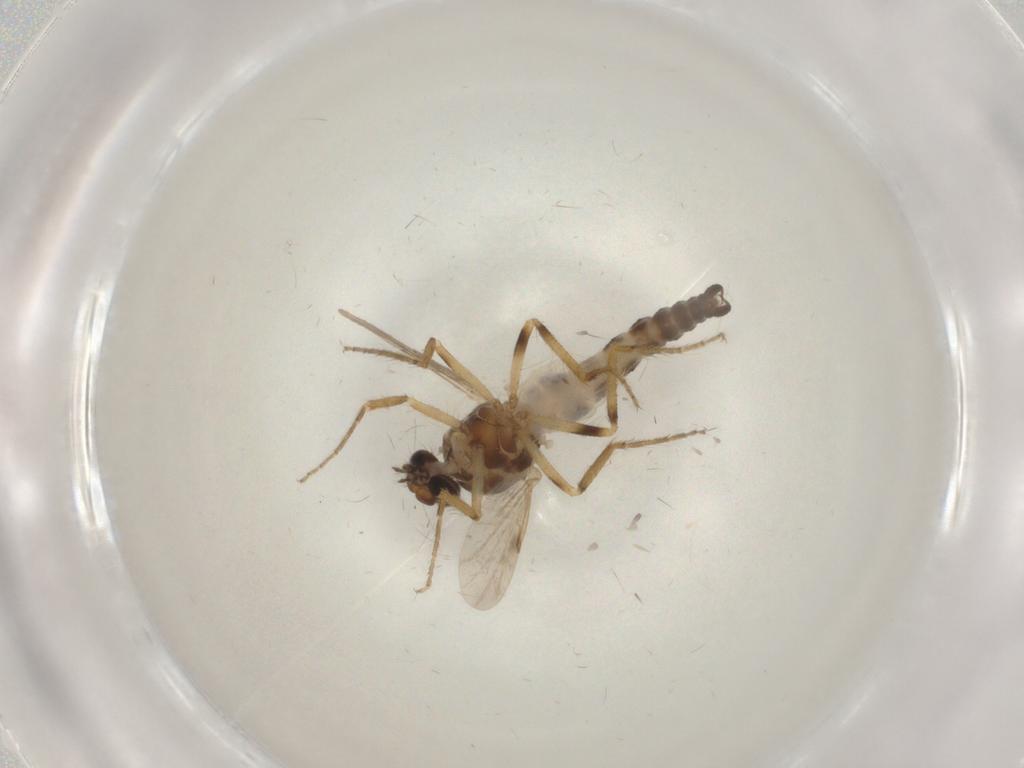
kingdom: Animalia
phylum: Arthropoda
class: Insecta
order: Diptera
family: Ceratopogonidae
